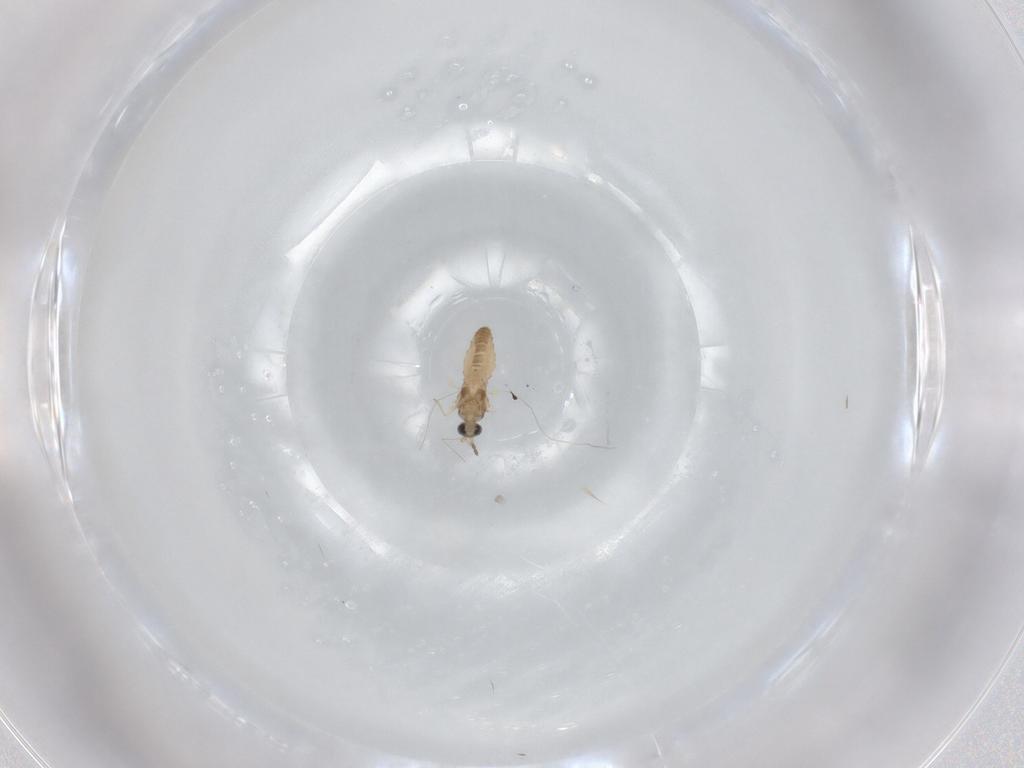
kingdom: Animalia
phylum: Arthropoda
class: Insecta
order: Diptera
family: Cecidomyiidae
